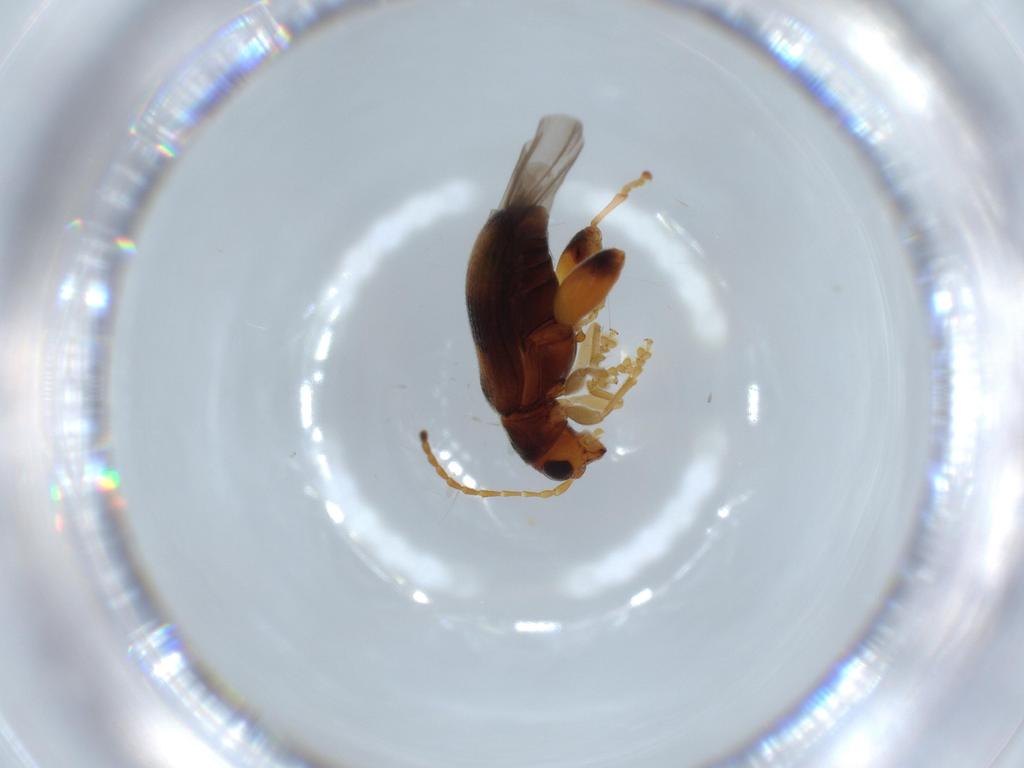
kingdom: Animalia
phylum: Arthropoda
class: Insecta
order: Coleoptera
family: Chrysomelidae
